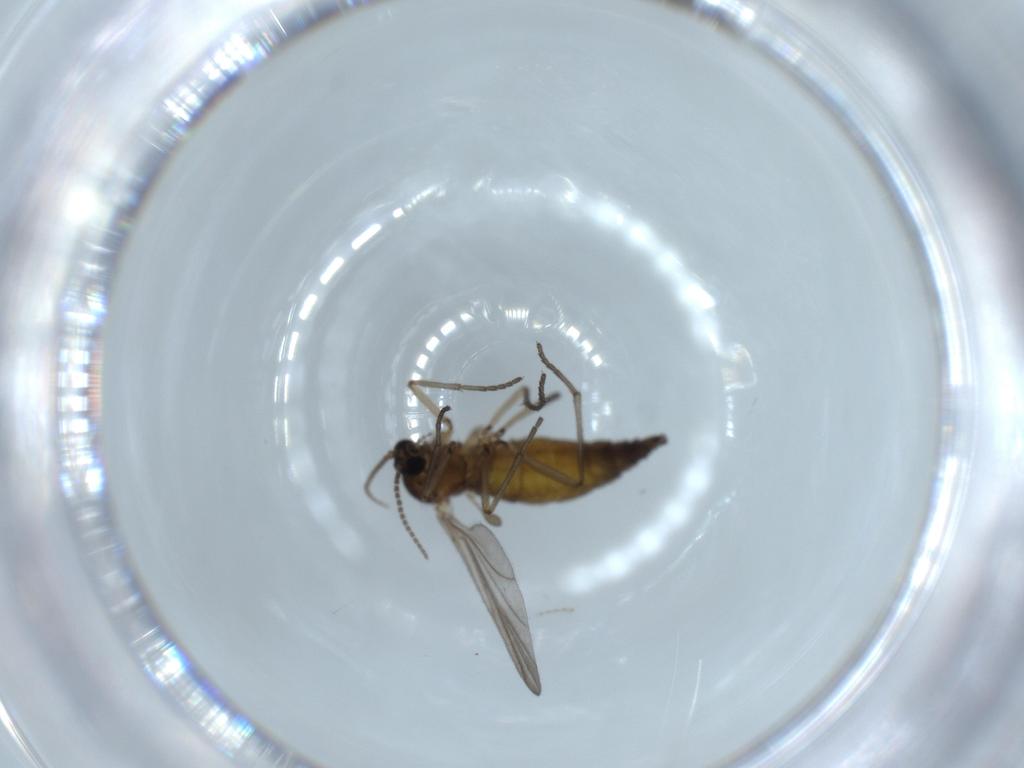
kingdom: Animalia
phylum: Arthropoda
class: Insecta
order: Diptera
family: Sciaridae
